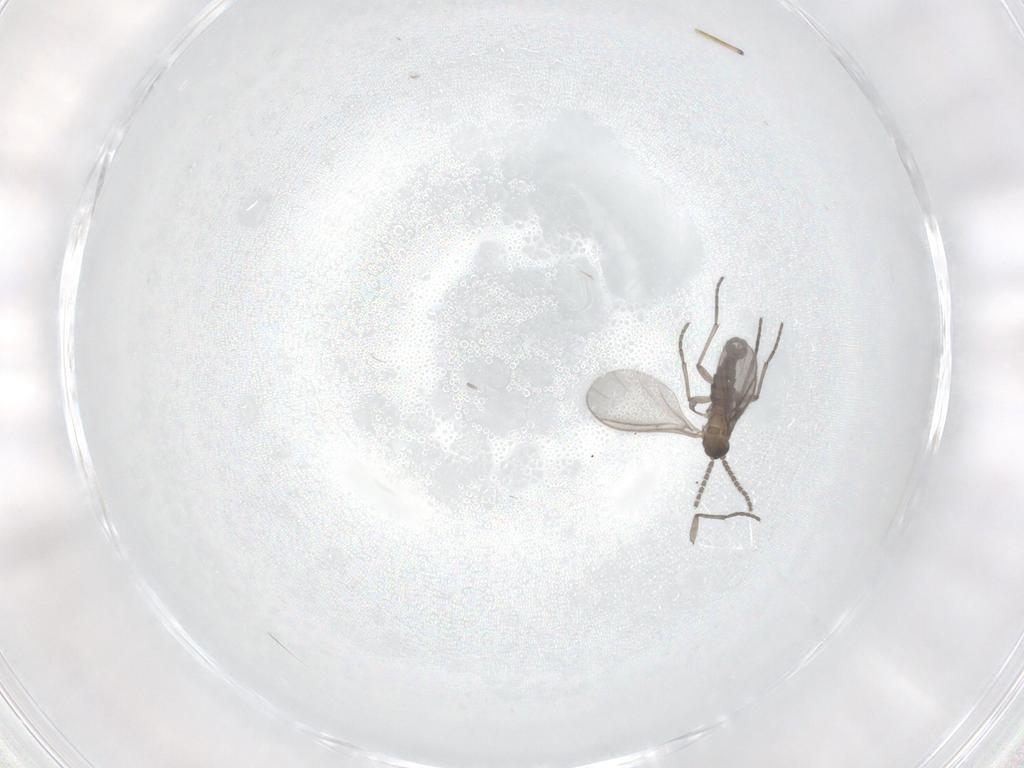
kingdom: Animalia
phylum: Arthropoda
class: Insecta
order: Diptera
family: Sciaridae
